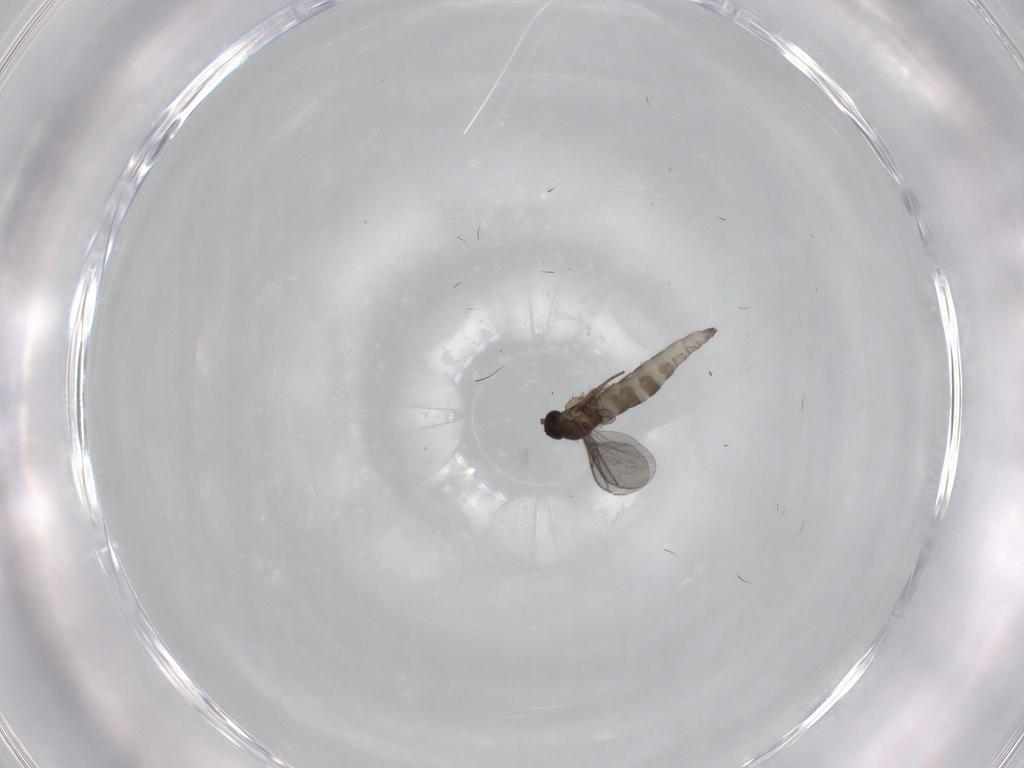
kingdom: Animalia
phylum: Arthropoda
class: Insecta
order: Diptera
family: Sciaridae
